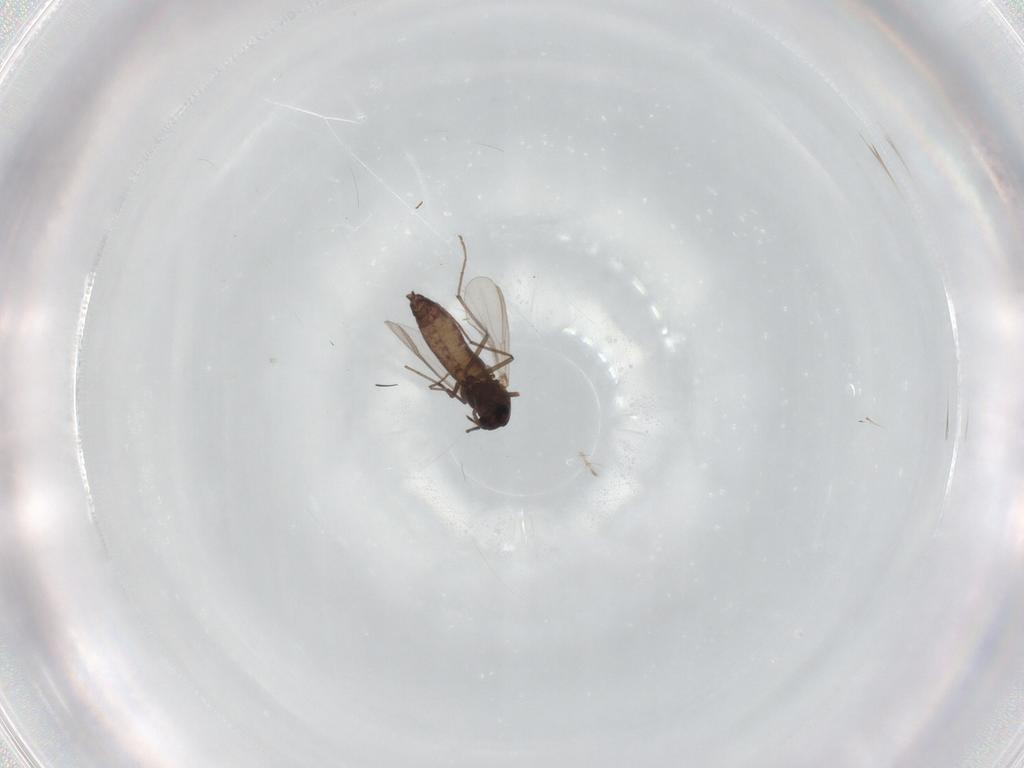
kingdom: Animalia
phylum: Arthropoda
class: Insecta
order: Diptera
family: Chironomidae
